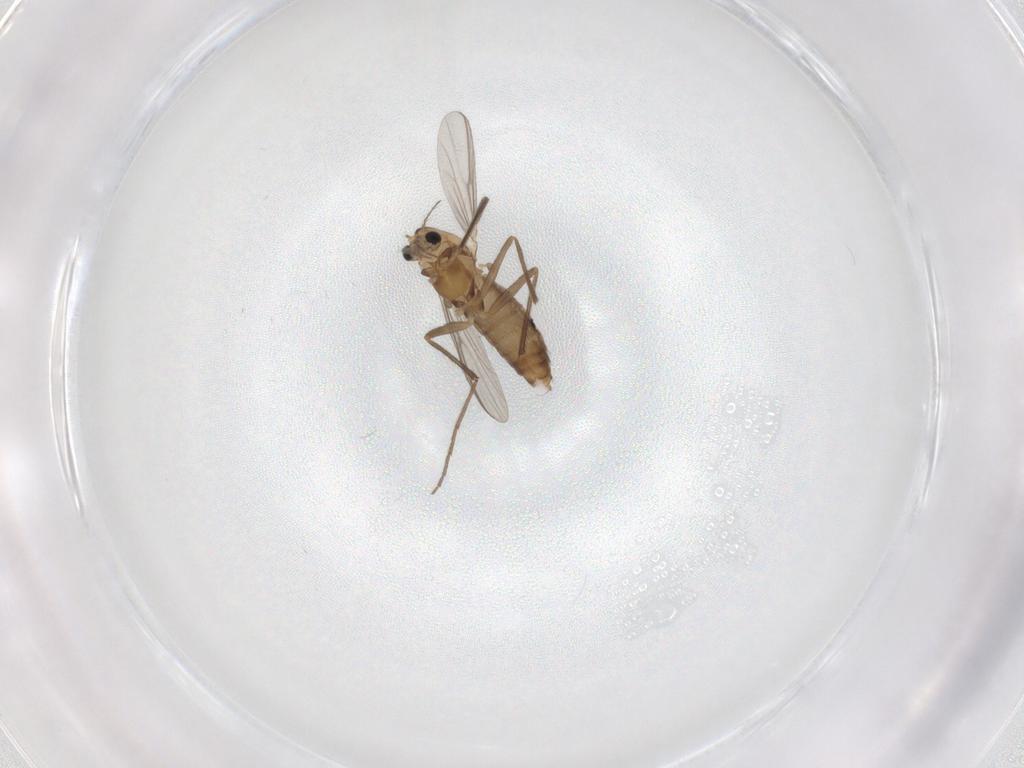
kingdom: Animalia
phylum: Arthropoda
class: Insecta
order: Diptera
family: Chironomidae
